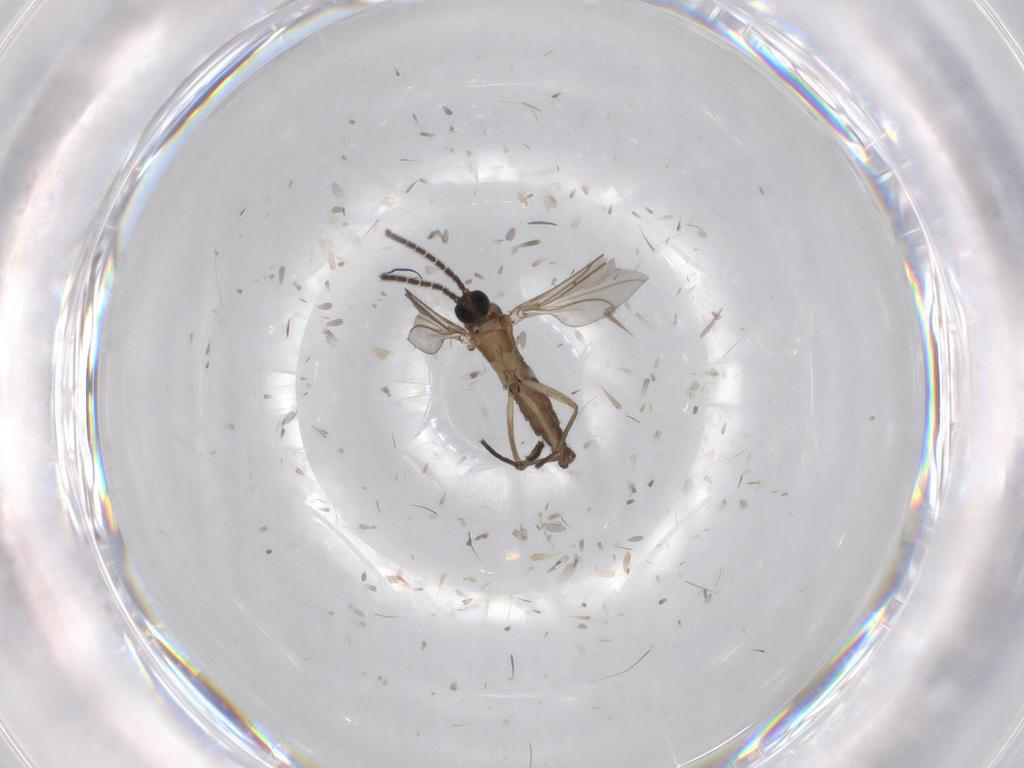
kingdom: Animalia
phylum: Arthropoda
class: Insecta
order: Diptera
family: Sciaridae
